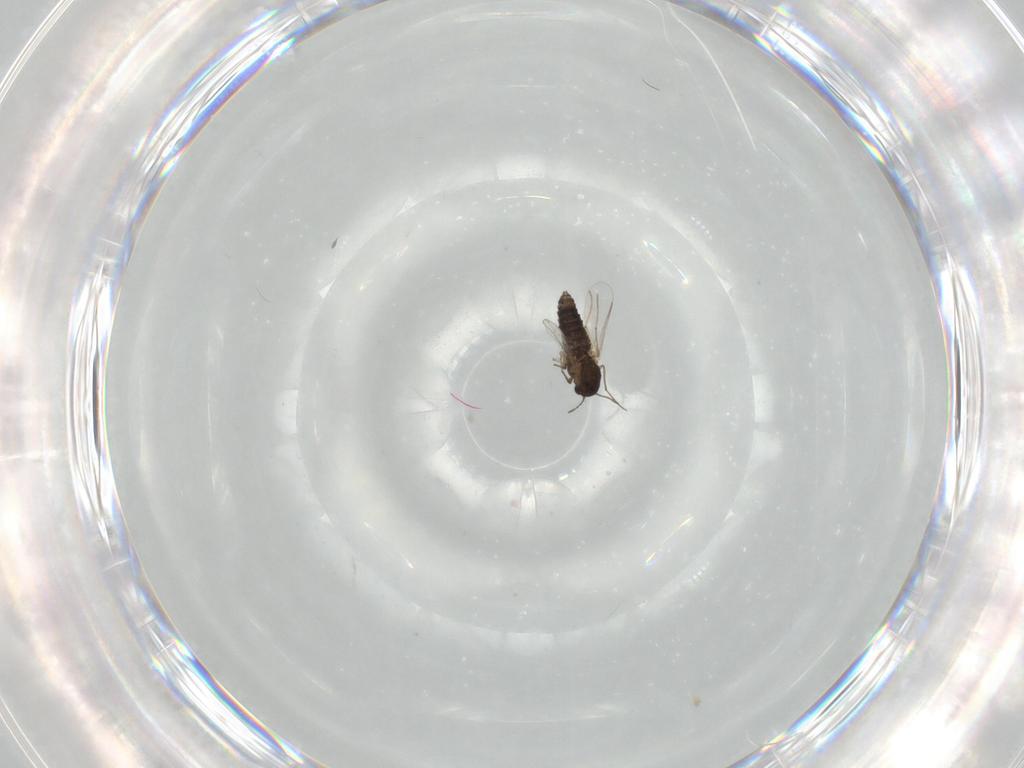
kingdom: Animalia
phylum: Arthropoda
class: Insecta
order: Diptera
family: Chironomidae
